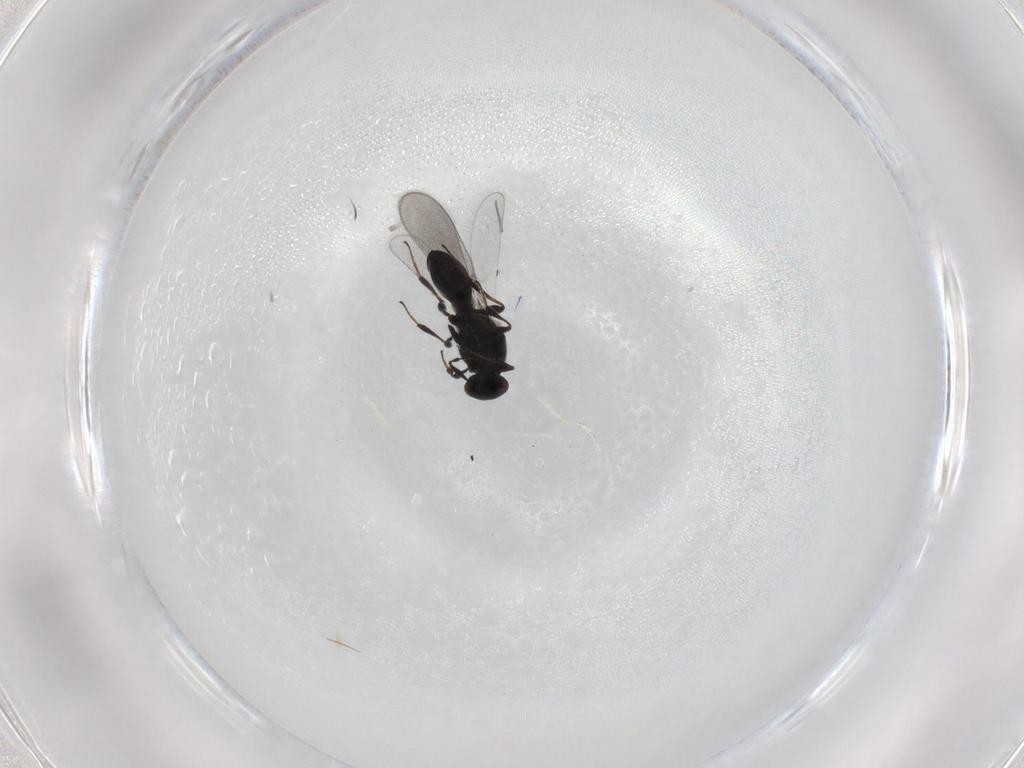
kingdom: Animalia
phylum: Arthropoda
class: Insecta
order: Hymenoptera
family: Platygastridae
